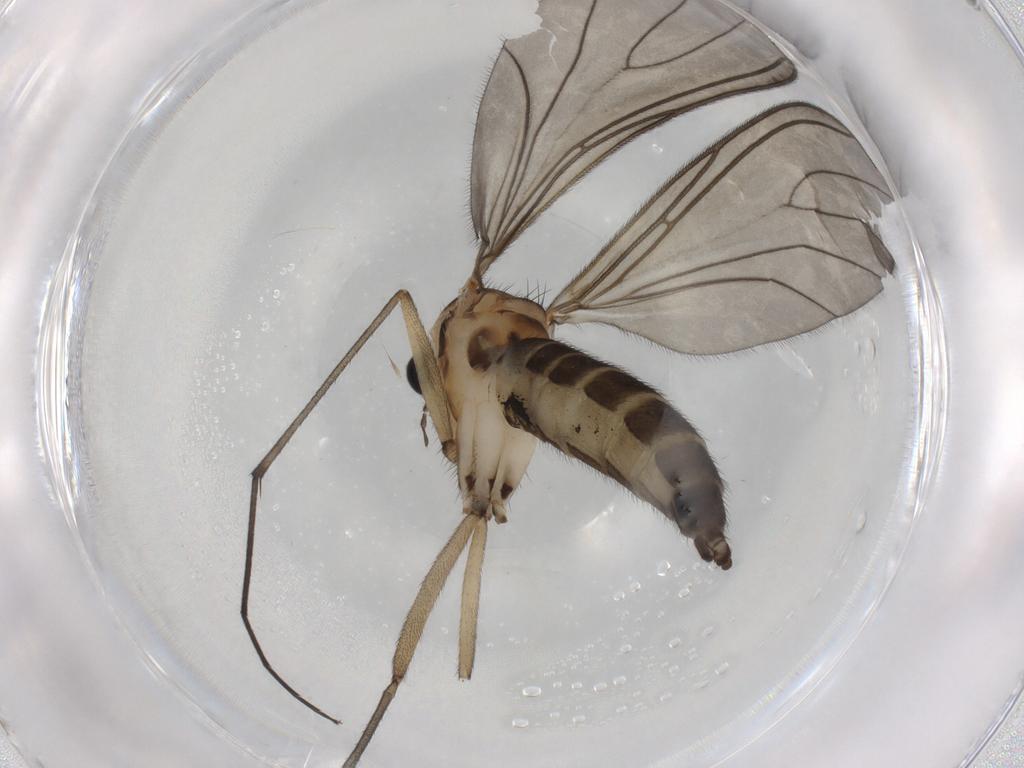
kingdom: Animalia
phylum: Arthropoda
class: Insecta
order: Diptera
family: Sciaridae
